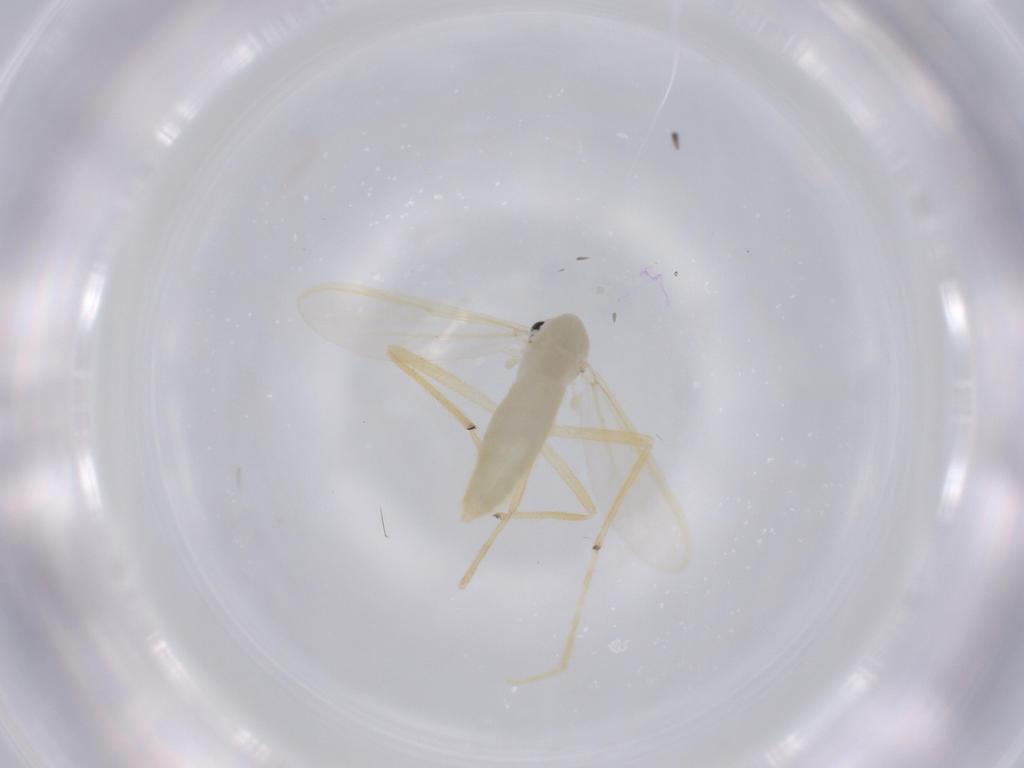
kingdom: Animalia
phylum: Arthropoda
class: Insecta
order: Diptera
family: Chironomidae
